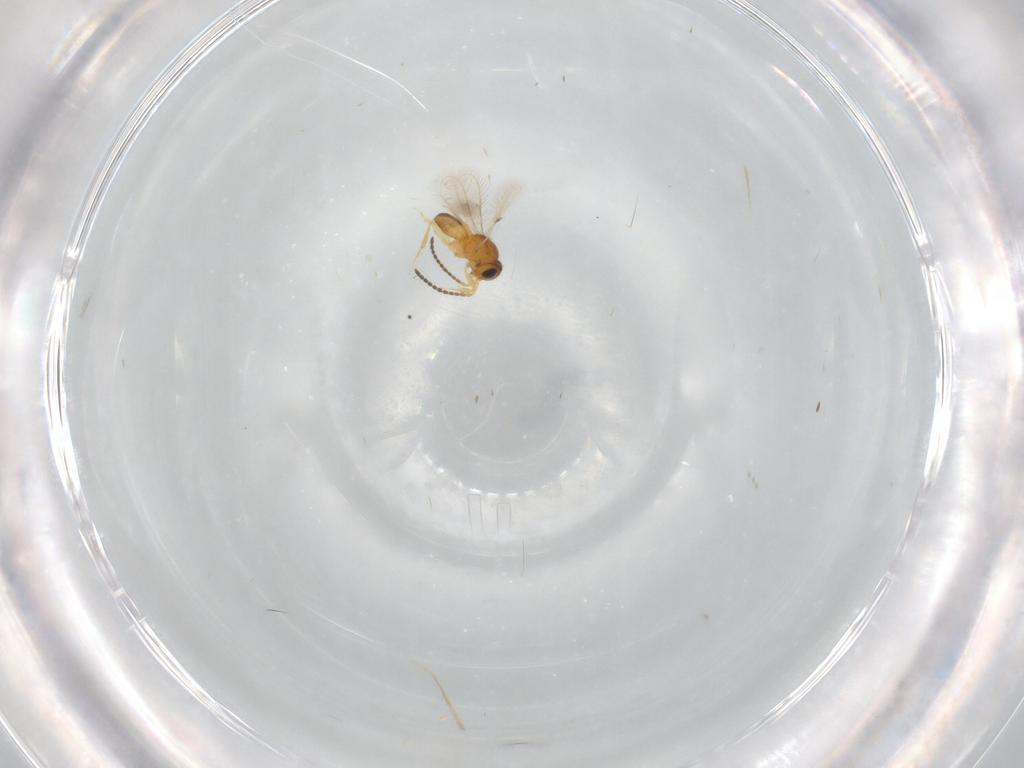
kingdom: Animalia
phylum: Arthropoda
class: Insecta
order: Hymenoptera
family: Scelionidae
